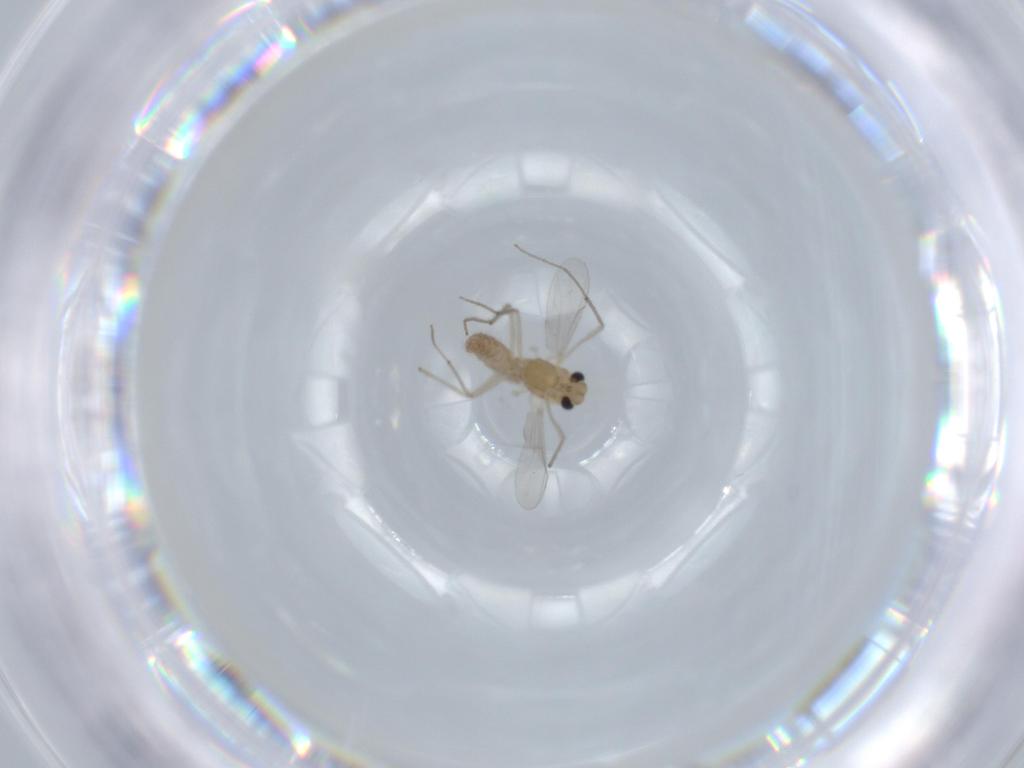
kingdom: Animalia
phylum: Arthropoda
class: Insecta
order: Diptera
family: Chironomidae
